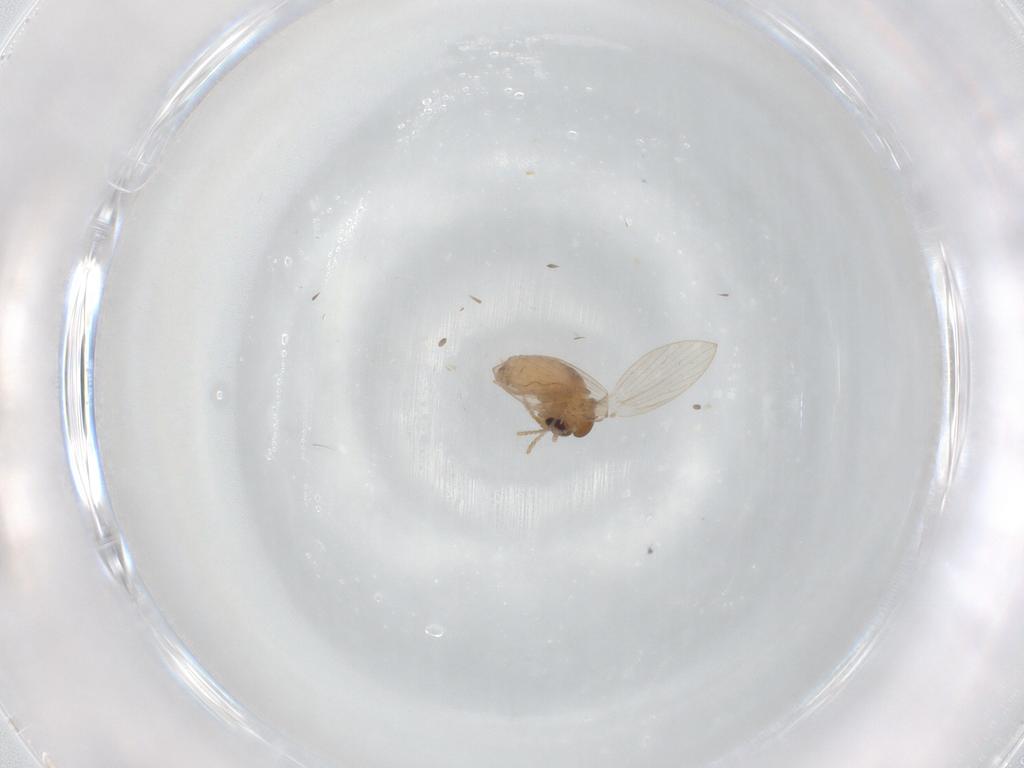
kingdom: Animalia
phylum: Arthropoda
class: Insecta
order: Diptera
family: Psychodidae
